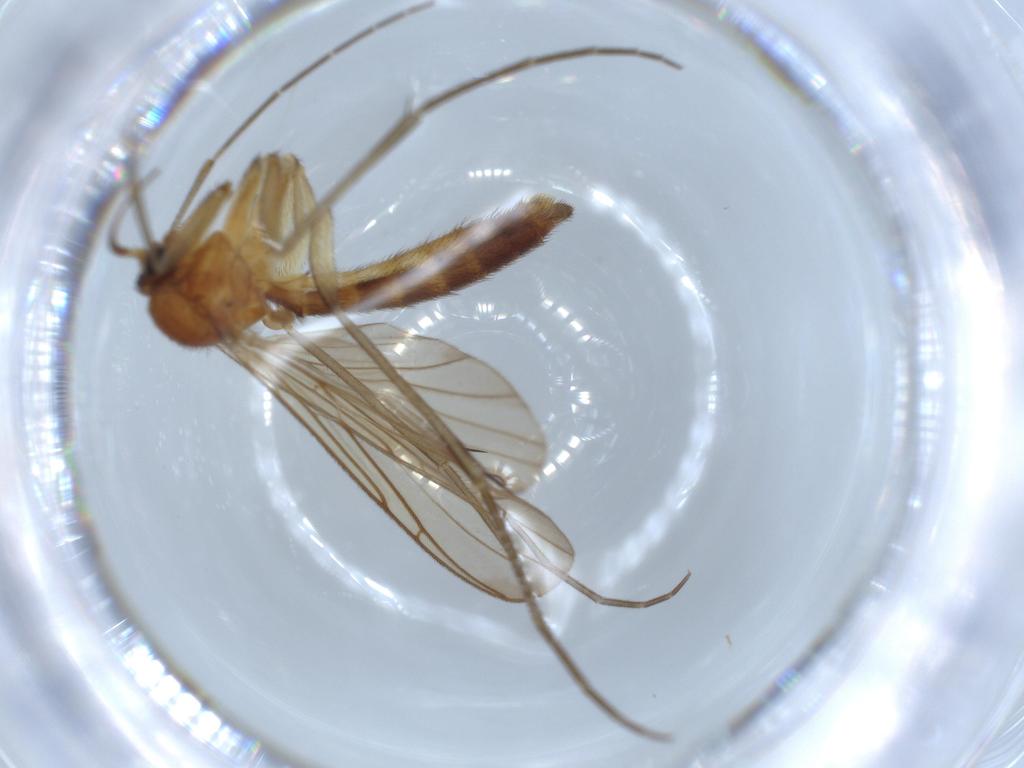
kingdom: Animalia
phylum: Arthropoda
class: Insecta
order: Diptera
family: Keroplatidae
